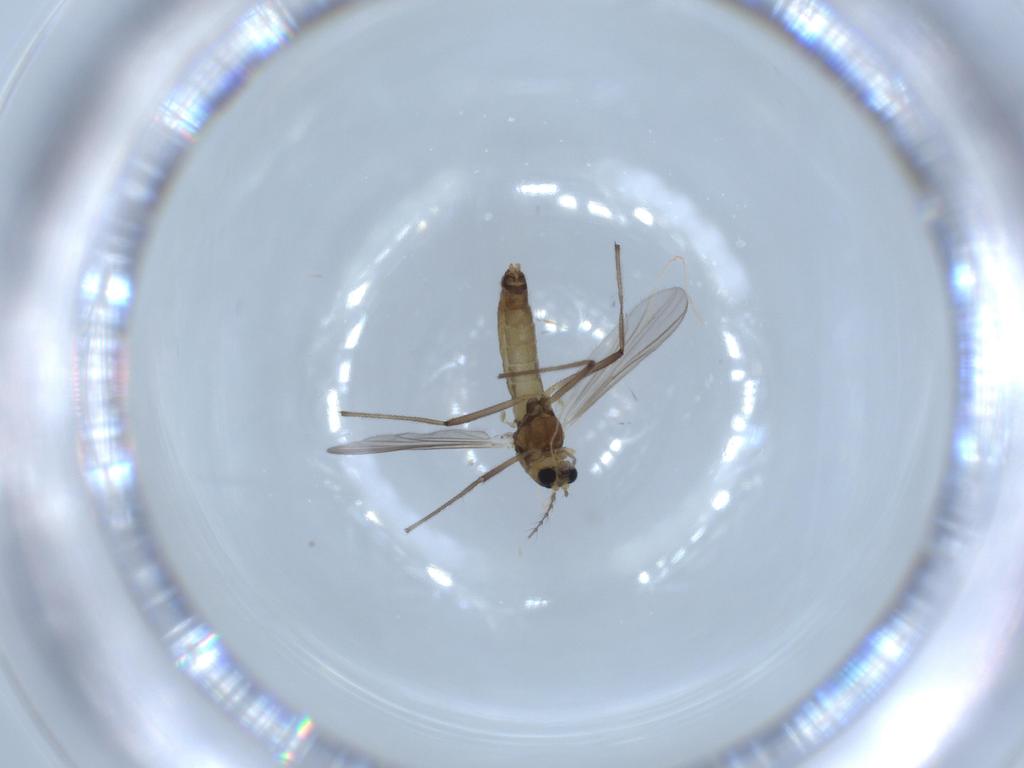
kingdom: Animalia
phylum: Arthropoda
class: Insecta
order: Diptera
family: Chironomidae
